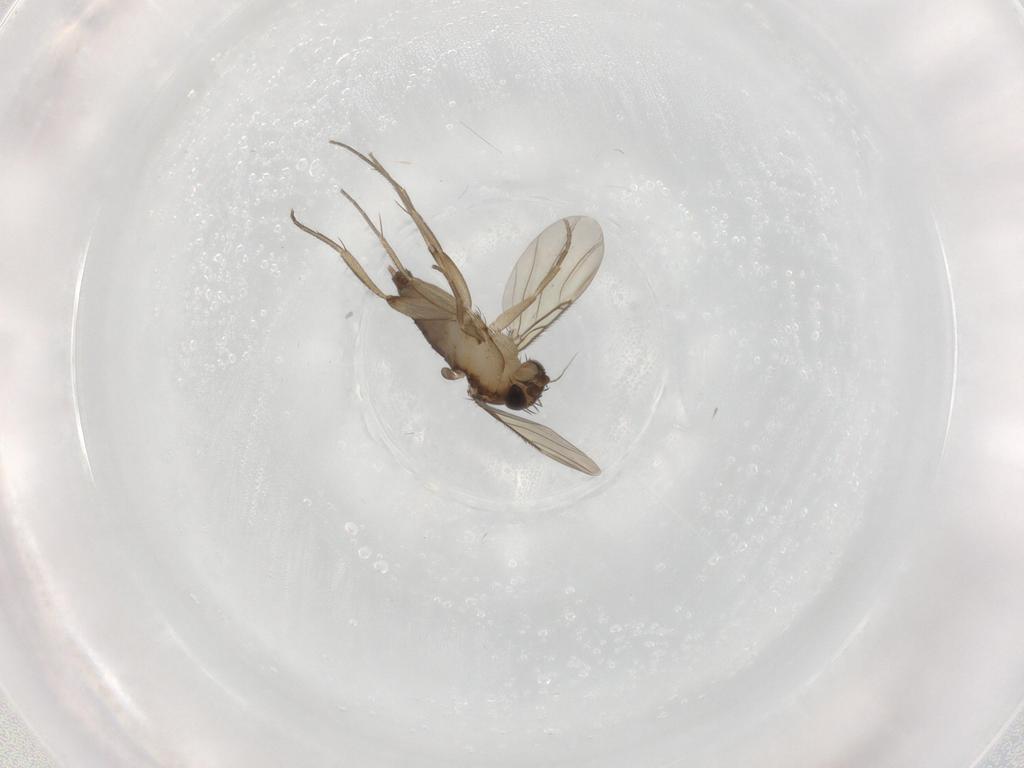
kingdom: Animalia
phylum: Arthropoda
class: Insecta
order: Diptera
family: Phoridae
